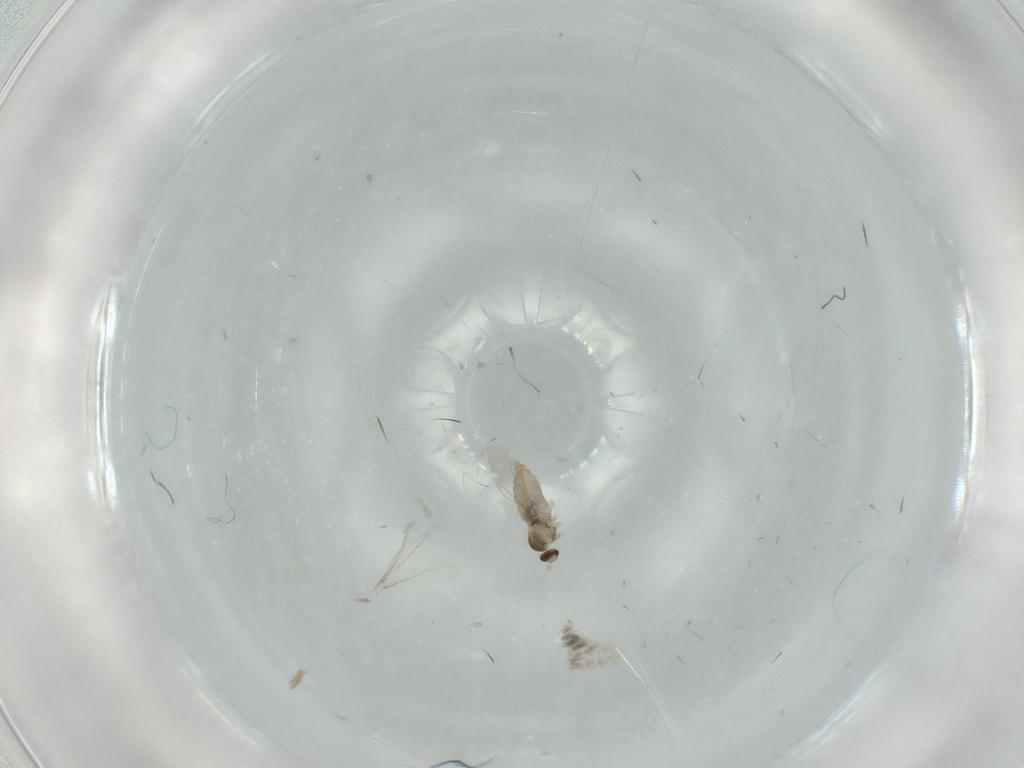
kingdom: Animalia
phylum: Arthropoda
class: Insecta
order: Diptera
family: Cecidomyiidae
